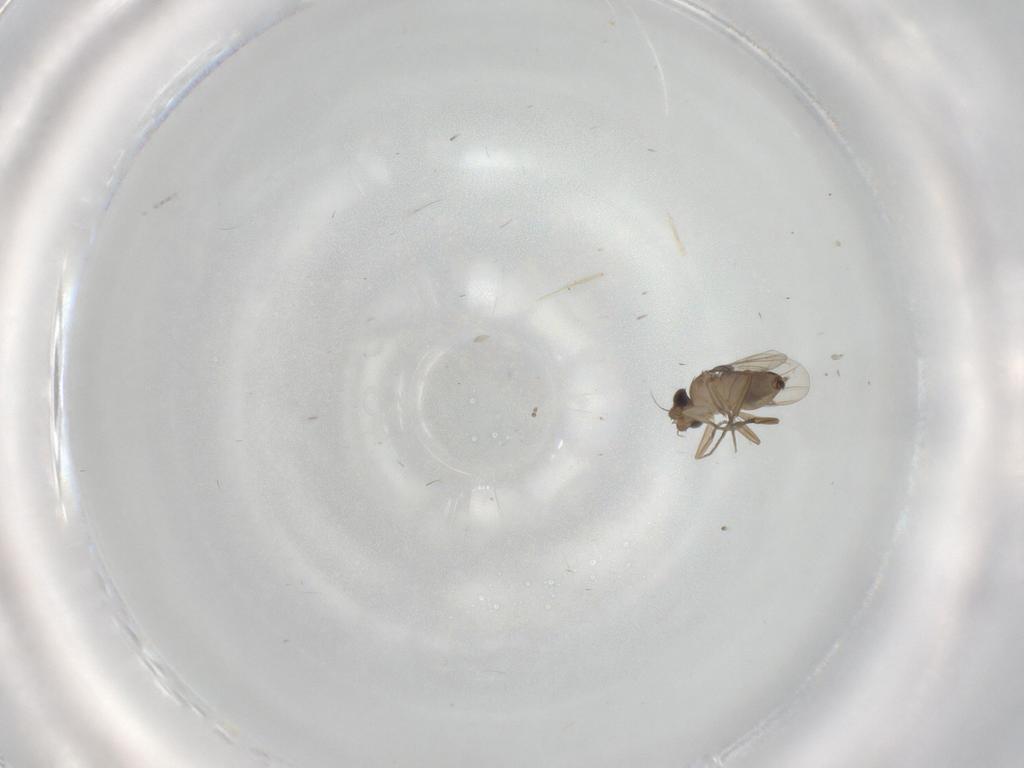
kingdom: Animalia
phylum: Arthropoda
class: Insecta
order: Diptera
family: Phoridae
